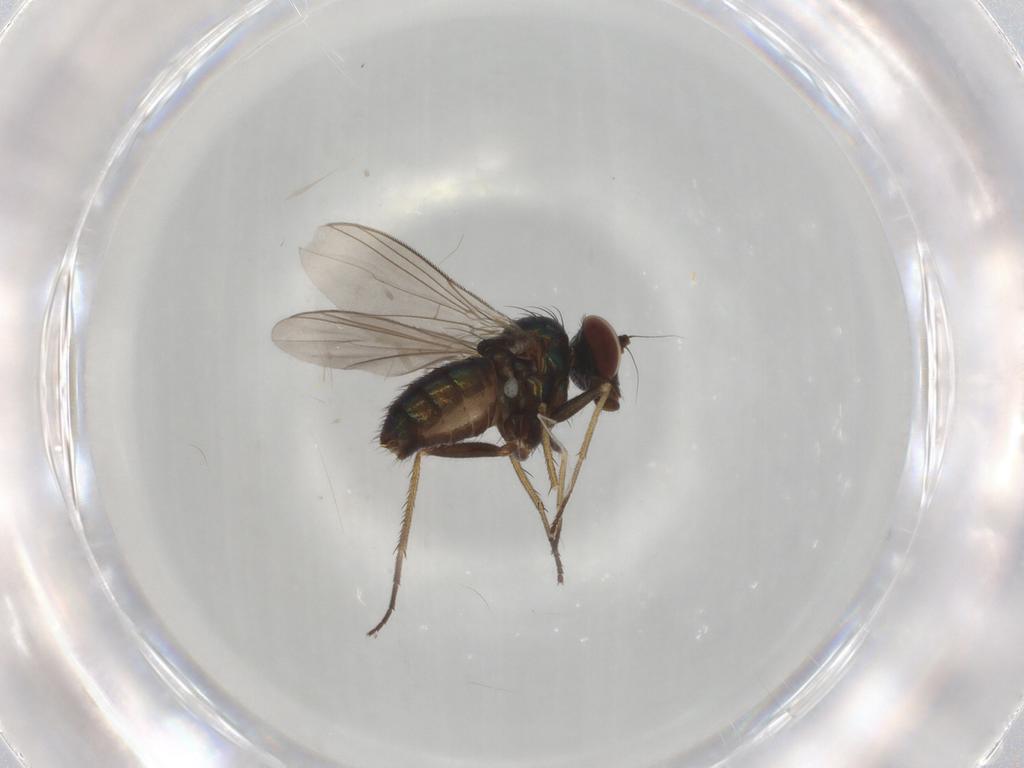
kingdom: Animalia
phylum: Arthropoda
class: Insecta
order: Diptera
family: Dolichopodidae
